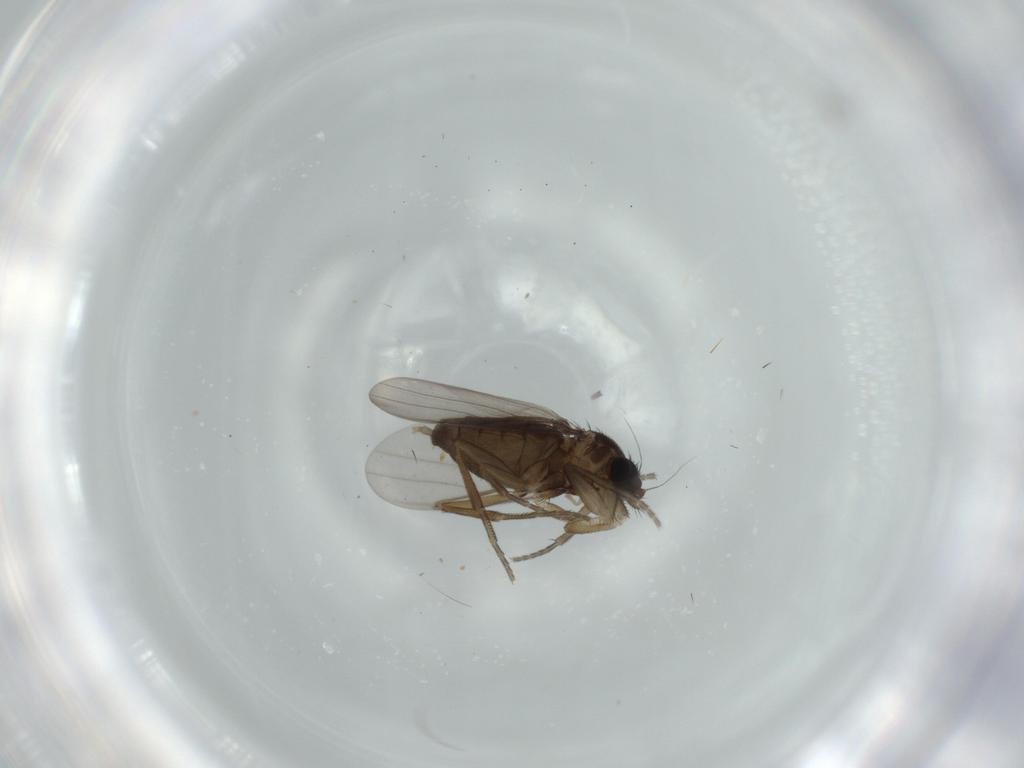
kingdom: Animalia
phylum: Arthropoda
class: Insecta
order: Diptera
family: Phoridae
